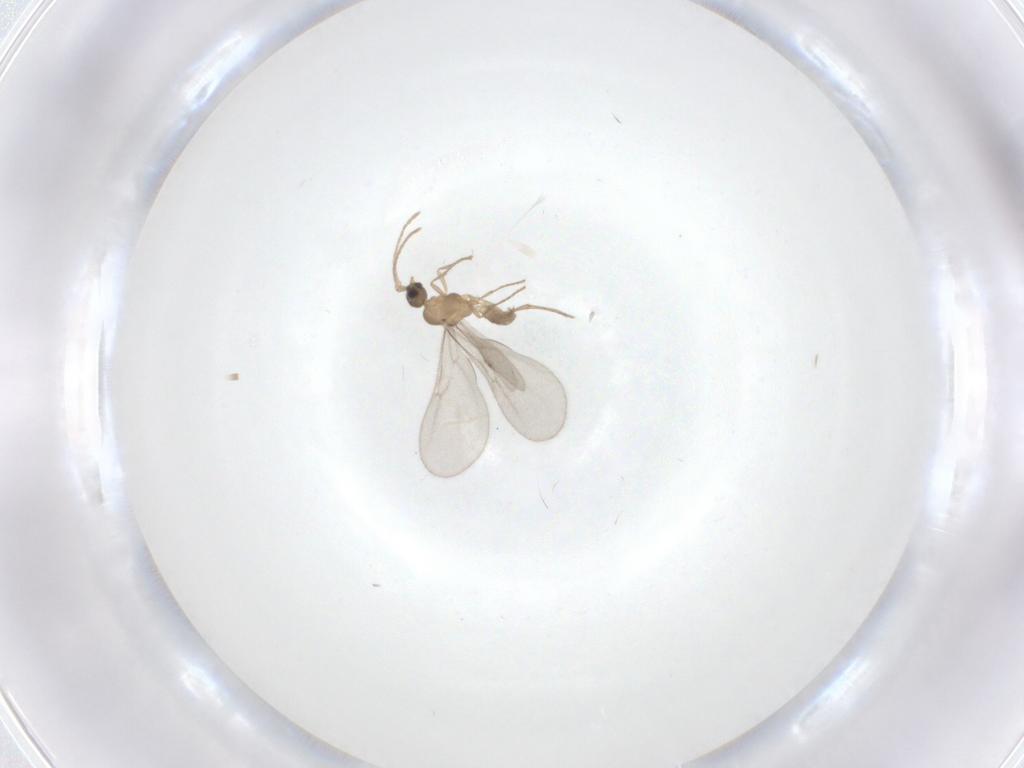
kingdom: Animalia
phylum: Arthropoda
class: Insecta
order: Hymenoptera
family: Formicidae
